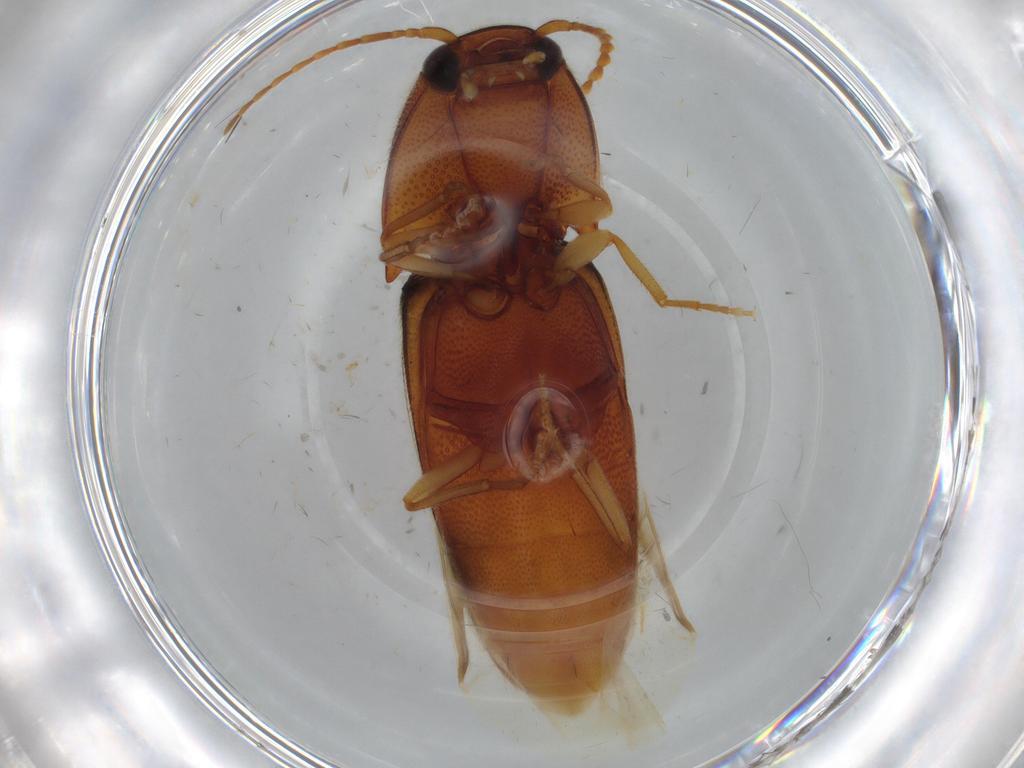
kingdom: Animalia
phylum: Arthropoda
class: Insecta
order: Coleoptera
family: Elateridae
